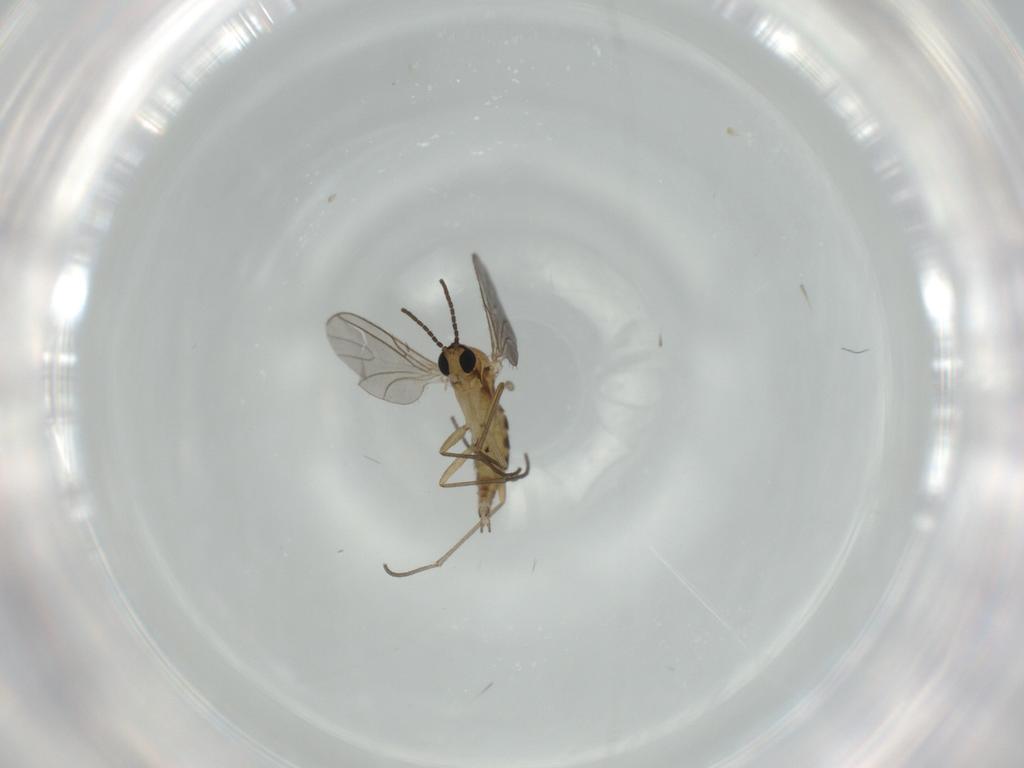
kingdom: Animalia
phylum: Arthropoda
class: Insecta
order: Diptera
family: Sciaridae
